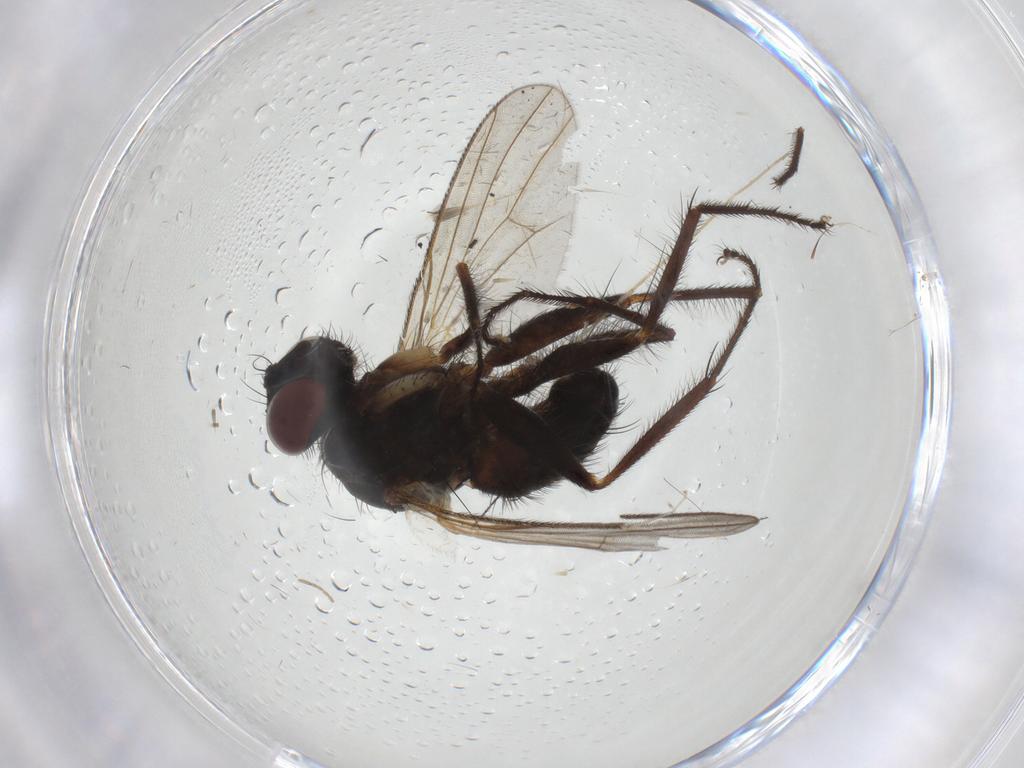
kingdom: Animalia
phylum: Arthropoda
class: Insecta
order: Diptera
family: Muscidae
